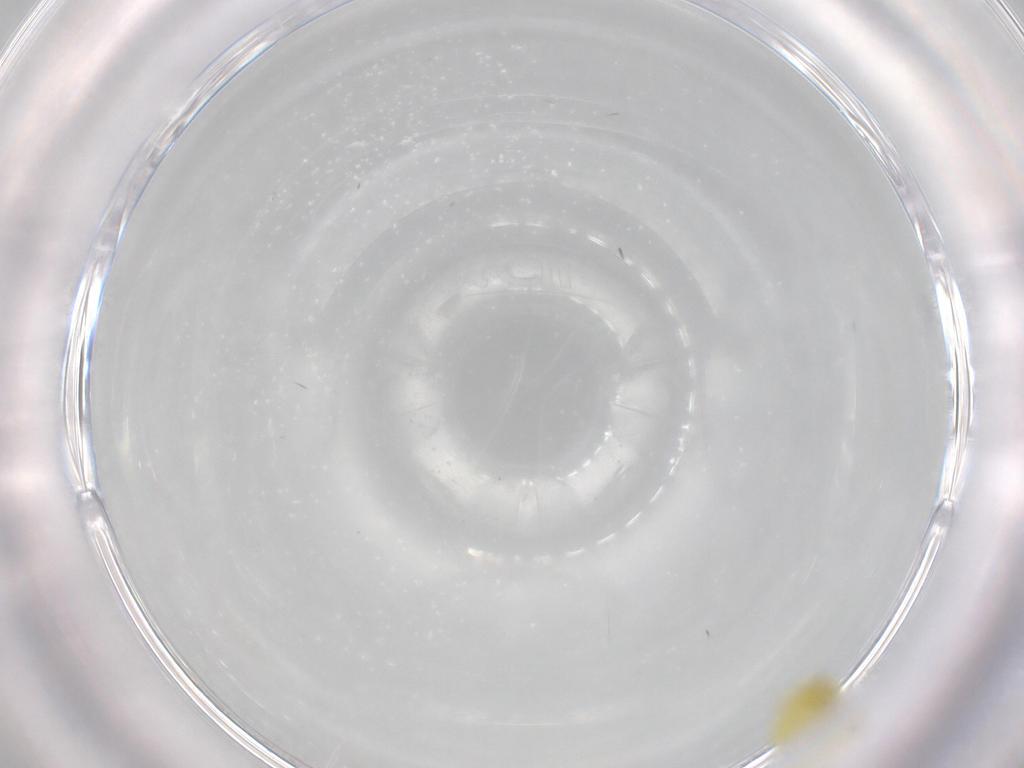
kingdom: Animalia
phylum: Arthropoda
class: Insecta
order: Hemiptera
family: Aleyrodidae
